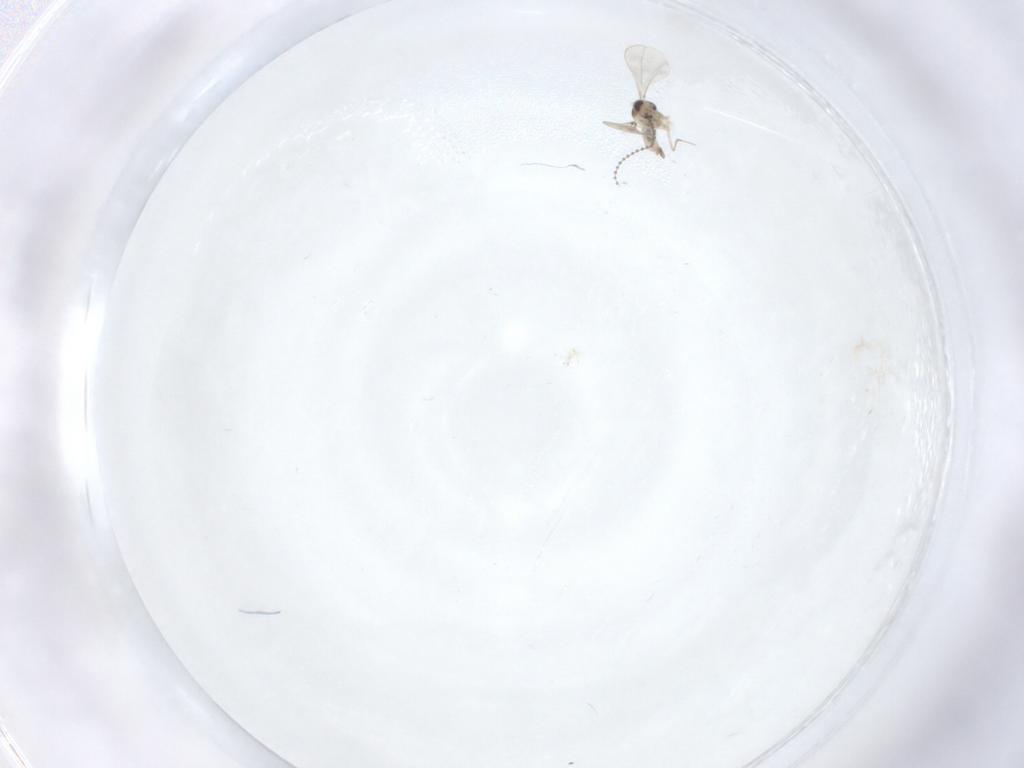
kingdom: Animalia
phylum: Arthropoda
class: Insecta
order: Diptera
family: Cecidomyiidae
